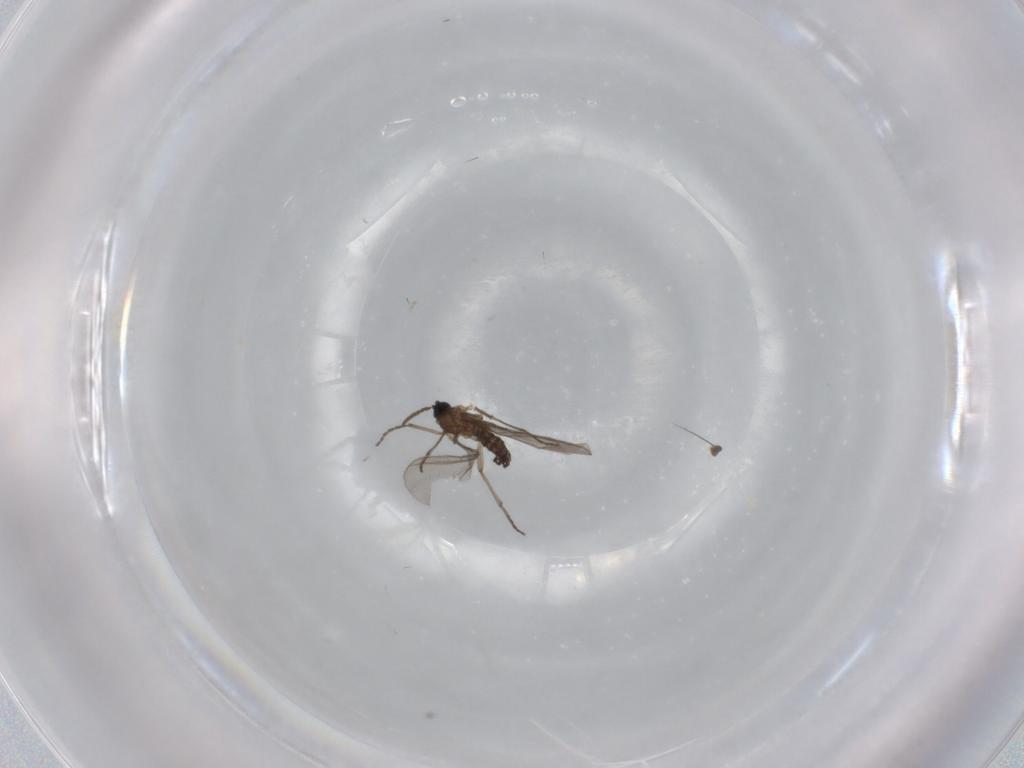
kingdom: Animalia
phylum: Arthropoda
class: Insecta
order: Diptera
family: Sciaridae
